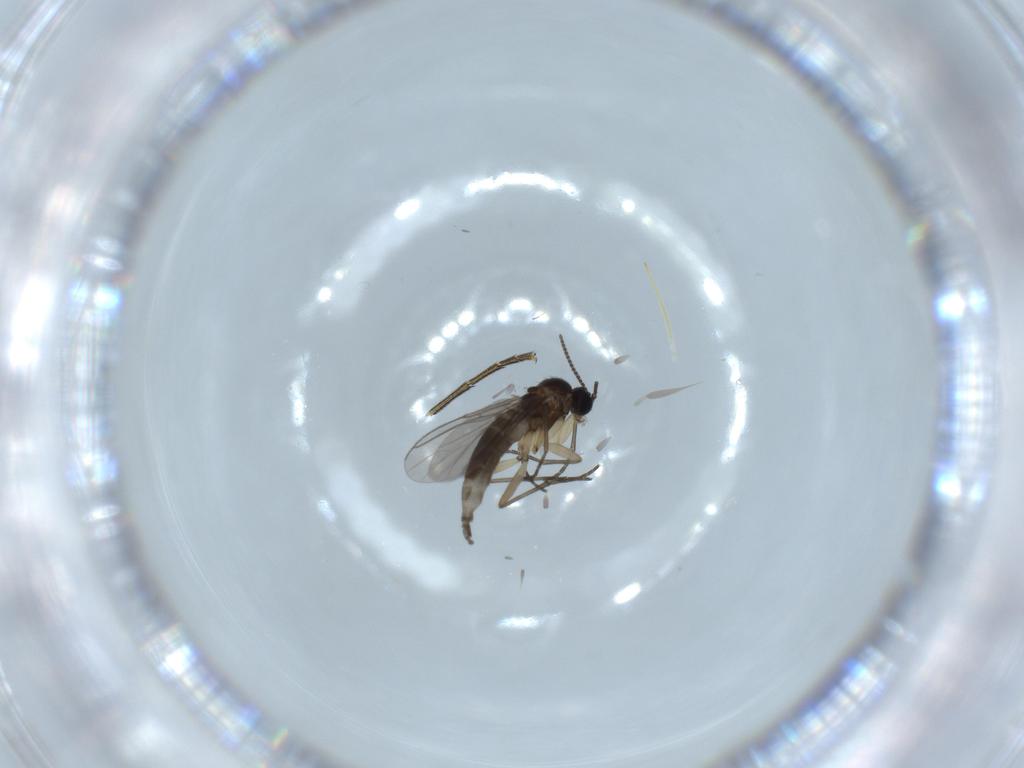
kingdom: Animalia
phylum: Arthropoda
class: Insecta
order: Diptera
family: Sciaridae
